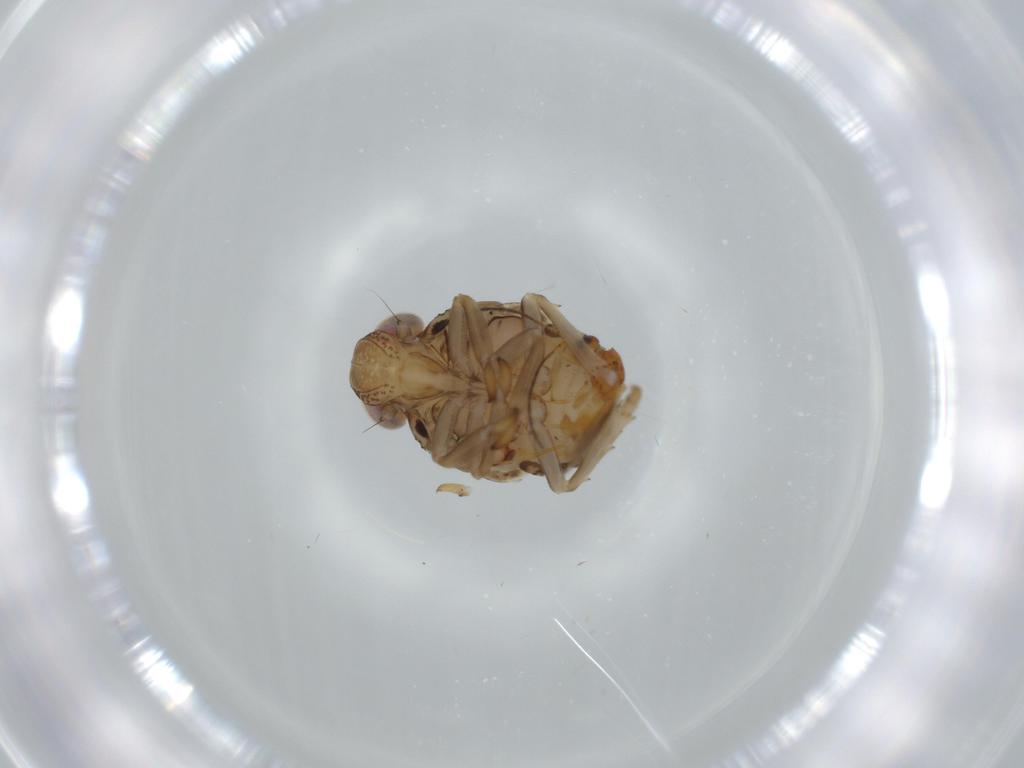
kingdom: Animalia
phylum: Arthropoda
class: Insecta
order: Hemiptera
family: Issidae
